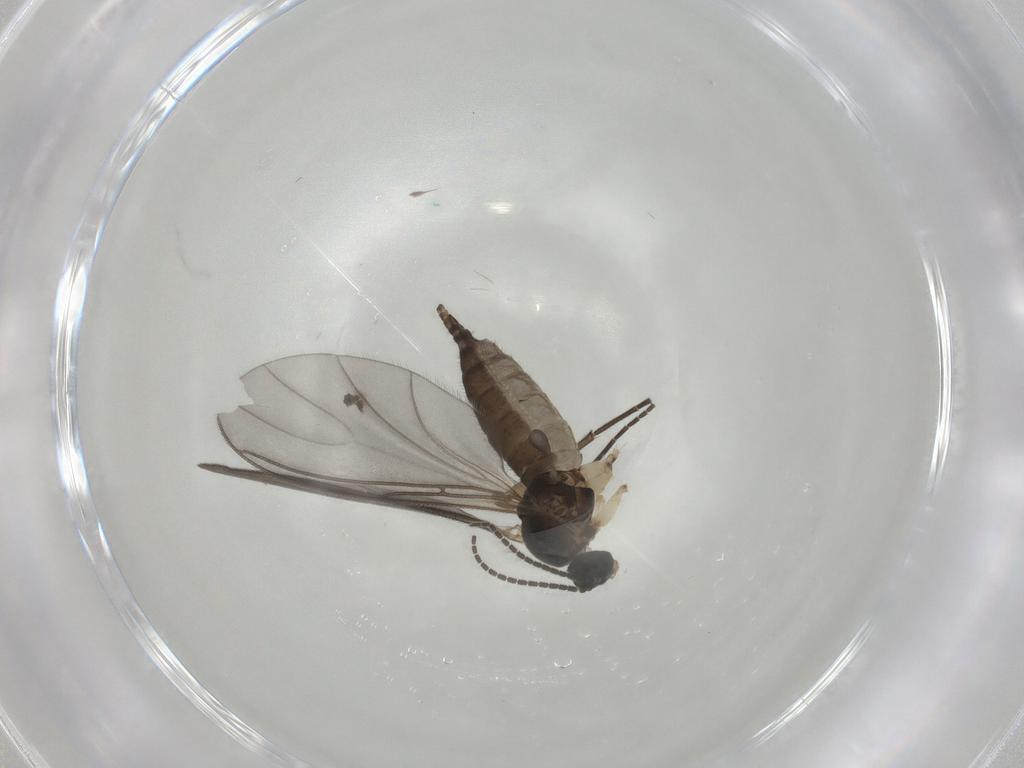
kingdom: Animalia
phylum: Arthropoda
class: Insecta
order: Diptera
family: Sciaridae
